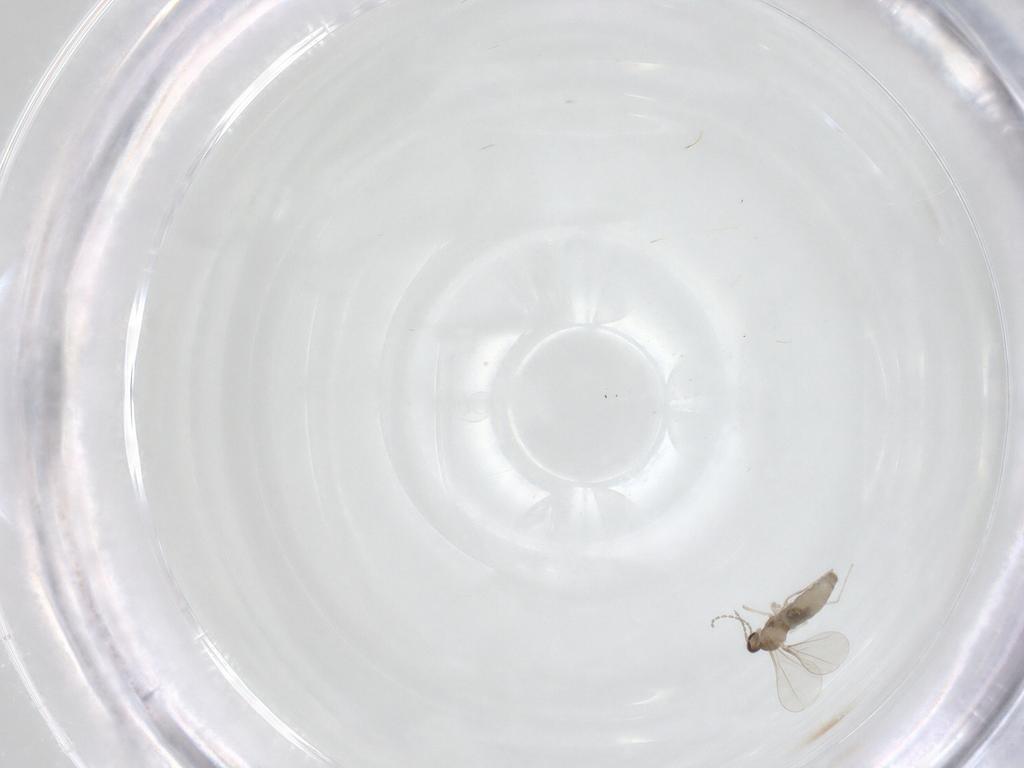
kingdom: Animalia
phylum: Arthropoda
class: Insecta
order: Diptera
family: Cecidomyiidae
